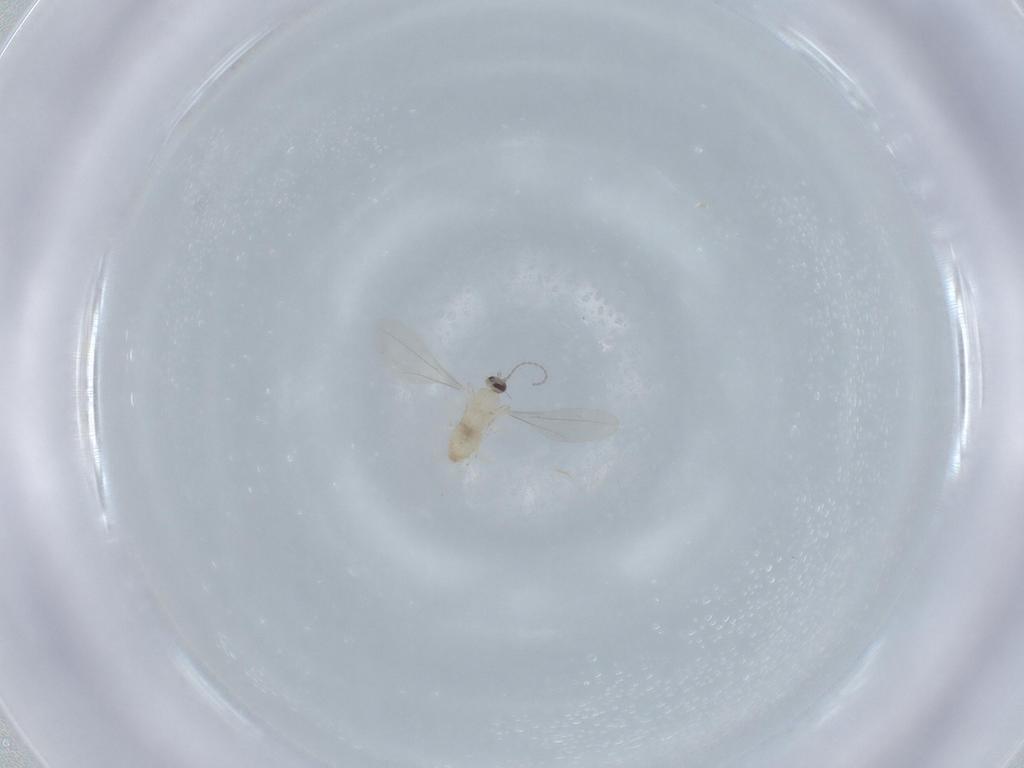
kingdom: Animalia
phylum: Arthropoda
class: Insecta
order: Diptera
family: Cecidomyiidae
